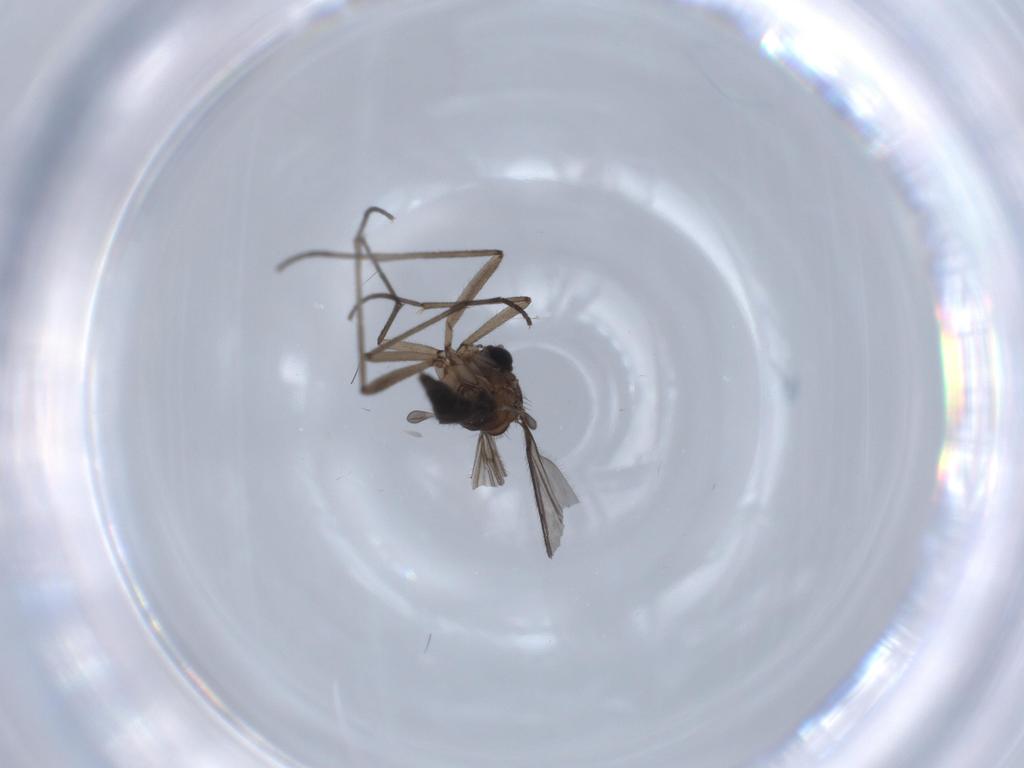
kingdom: Animalia
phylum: Arthropoda
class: Insecta
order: Diptera
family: Sciaridae
